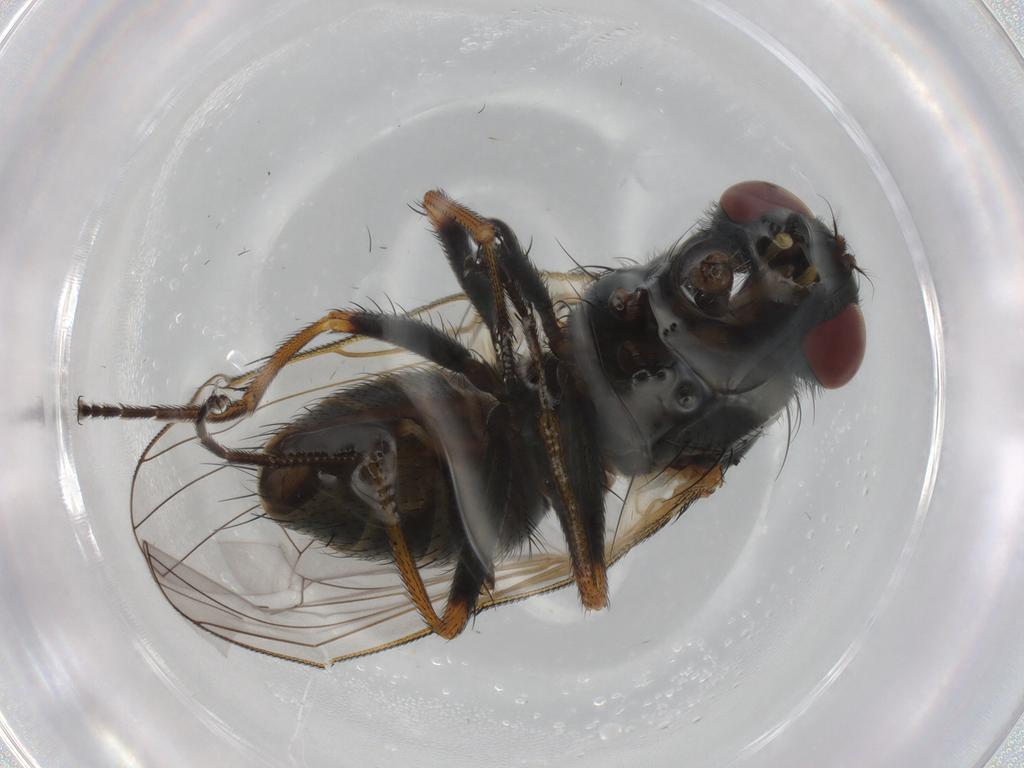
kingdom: Animalia
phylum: Arthropoda
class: Insecta
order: Diptera
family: Muscidae
